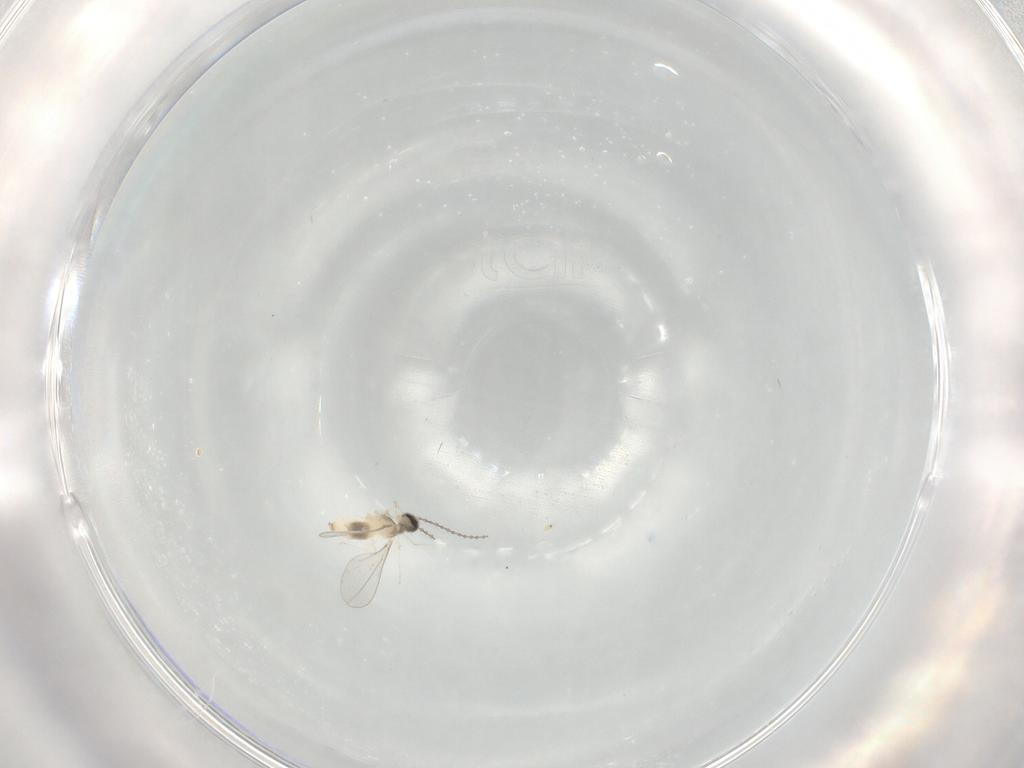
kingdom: Animalia
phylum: Arthropoda
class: Insecta
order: Diptera
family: Cecidomyiidae
